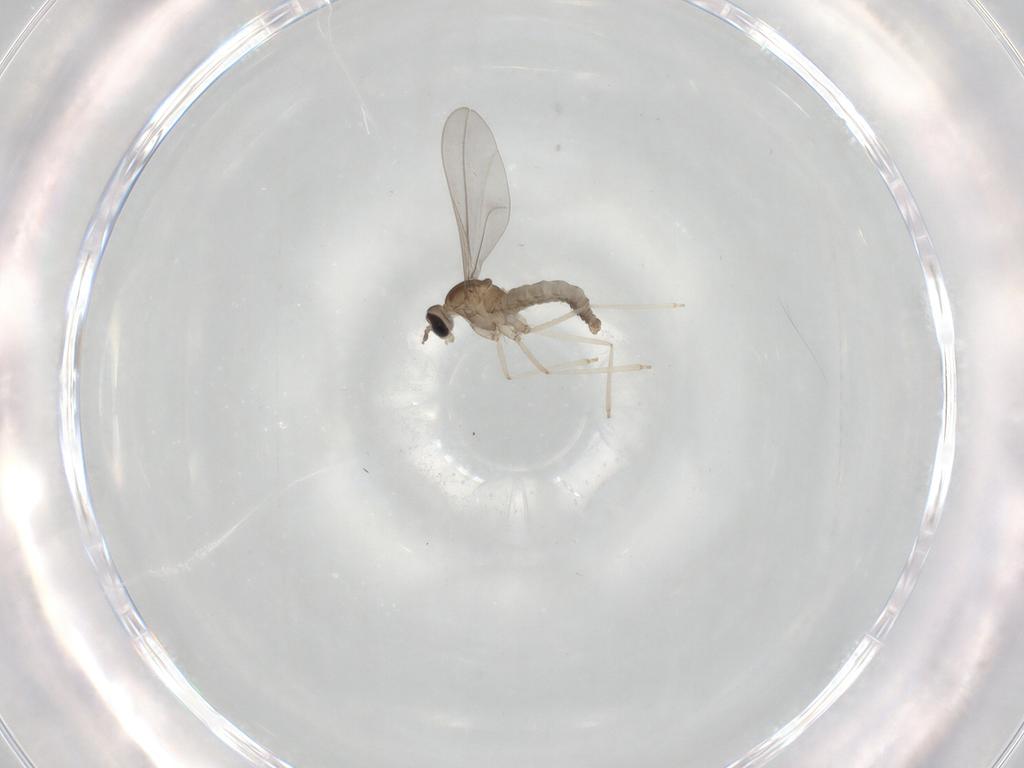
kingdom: Animalia
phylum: Arthropoda
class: Insecta
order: Diptera
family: Cecidomyiidae
